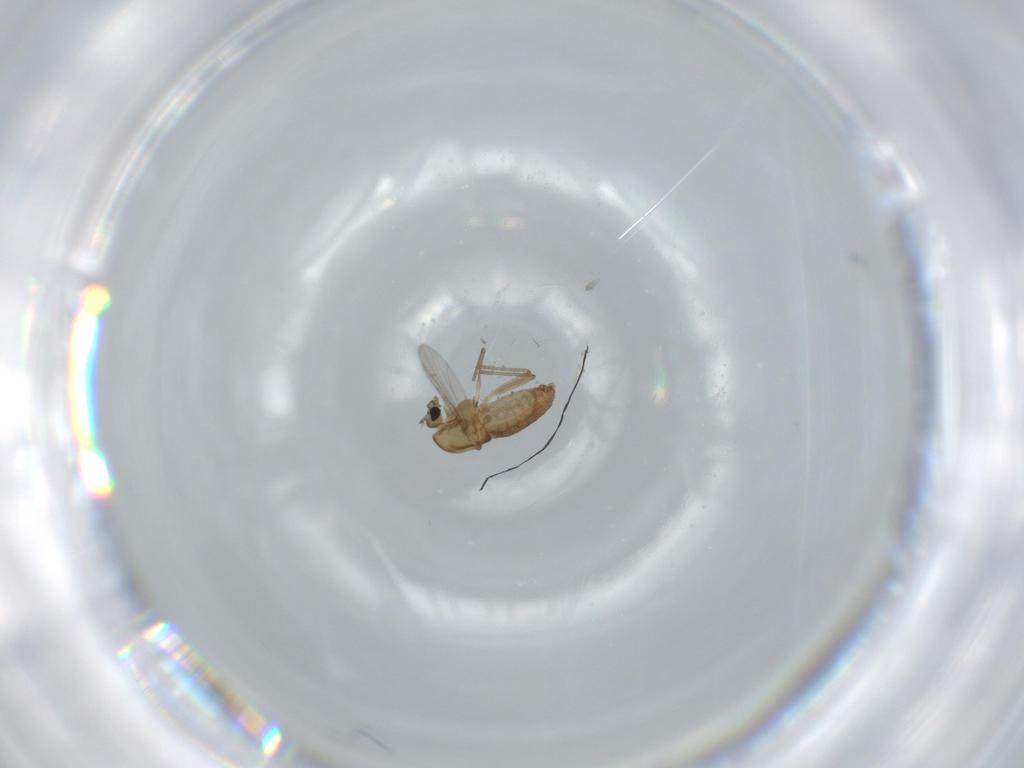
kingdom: Animalia
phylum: Arthropoda
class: Insecta
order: Diptera
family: Chironomidae
